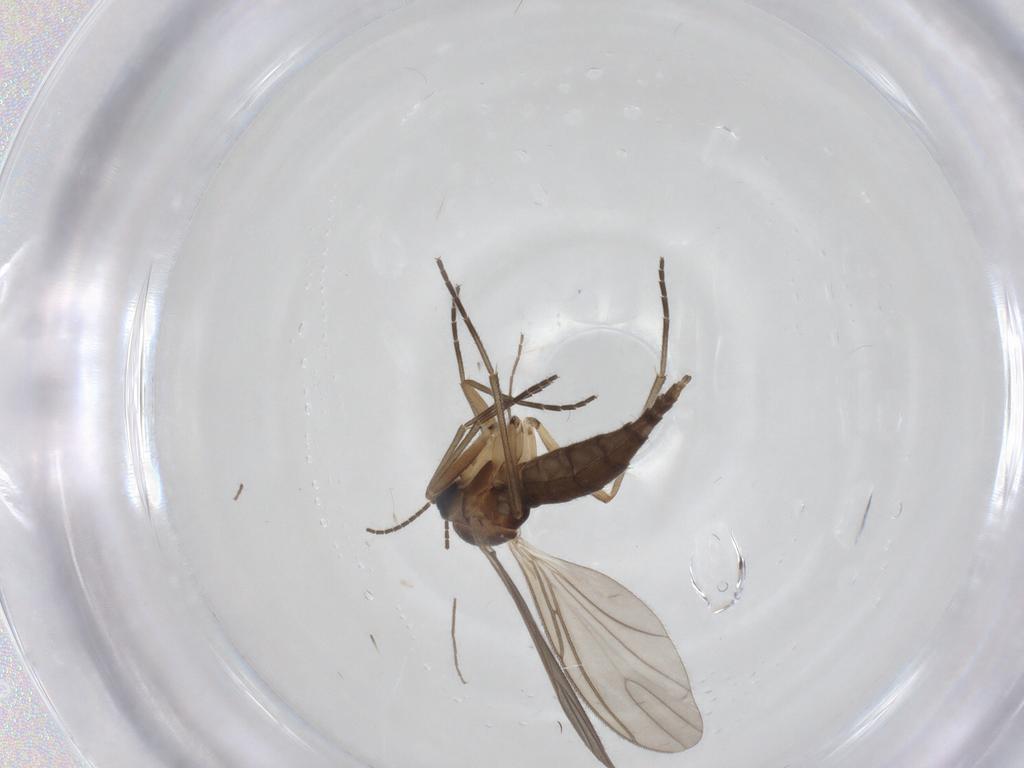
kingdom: Animalia
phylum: Arthropoda
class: Insecta
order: Diptera
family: Sciaridae
